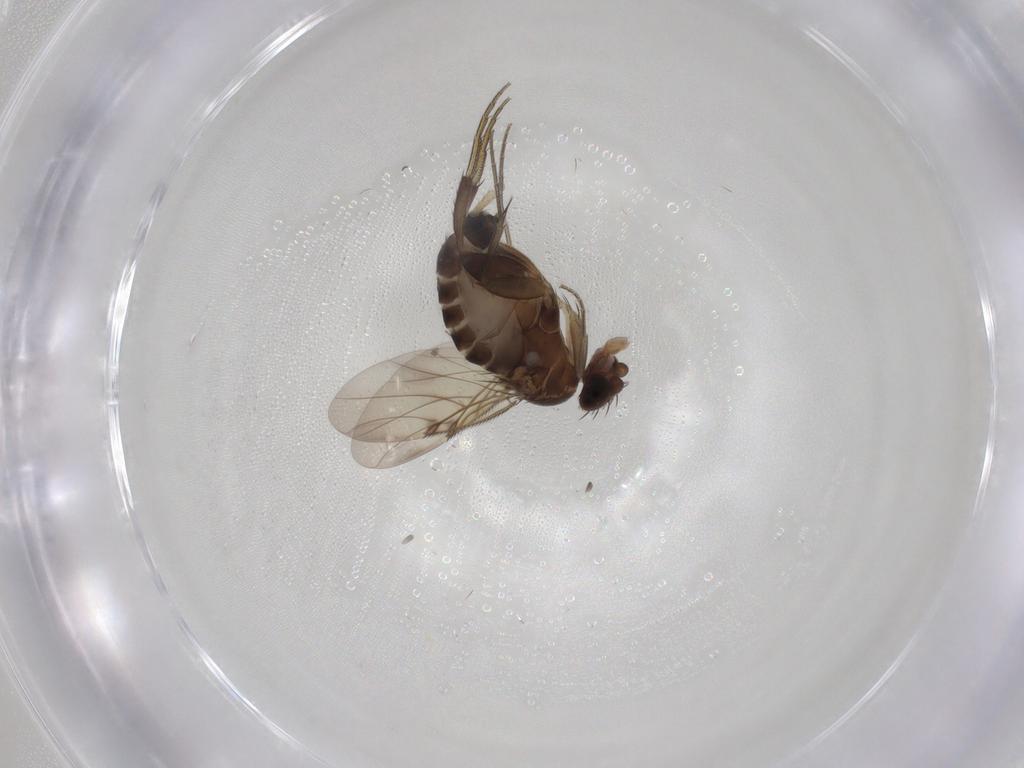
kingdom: Animalia
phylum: Arthropoda
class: Insecta
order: Diptera
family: Phoridae
